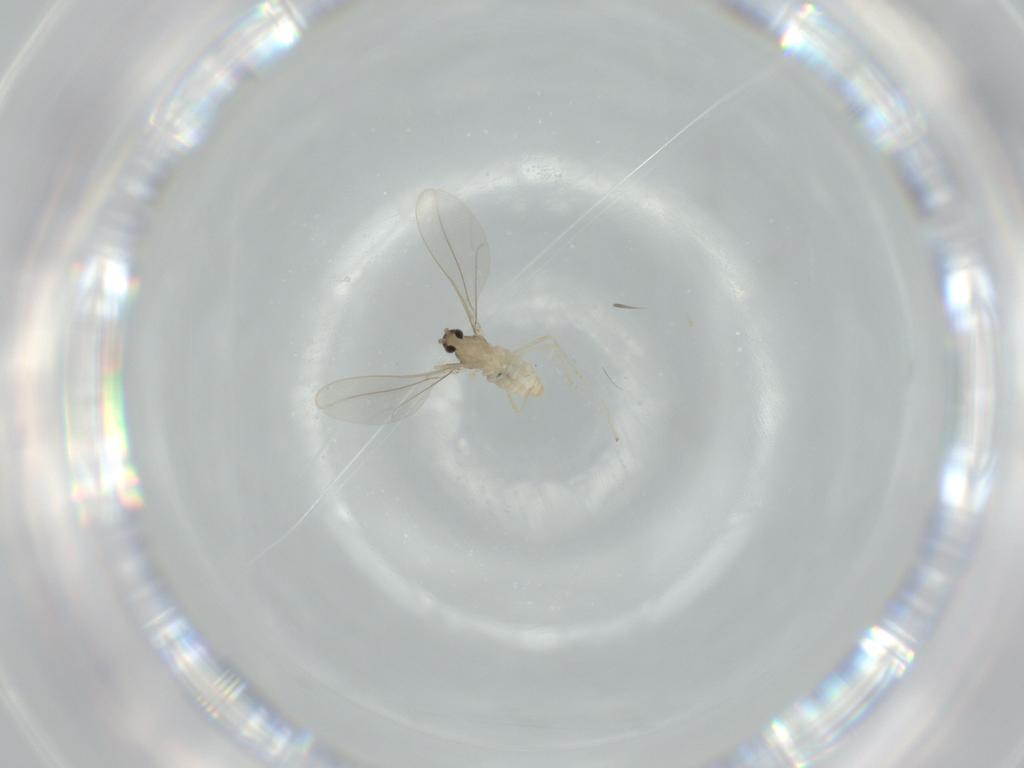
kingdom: Animalia
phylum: Arthropoda
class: Insecta
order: Diptera
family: Cecidomyiidae
